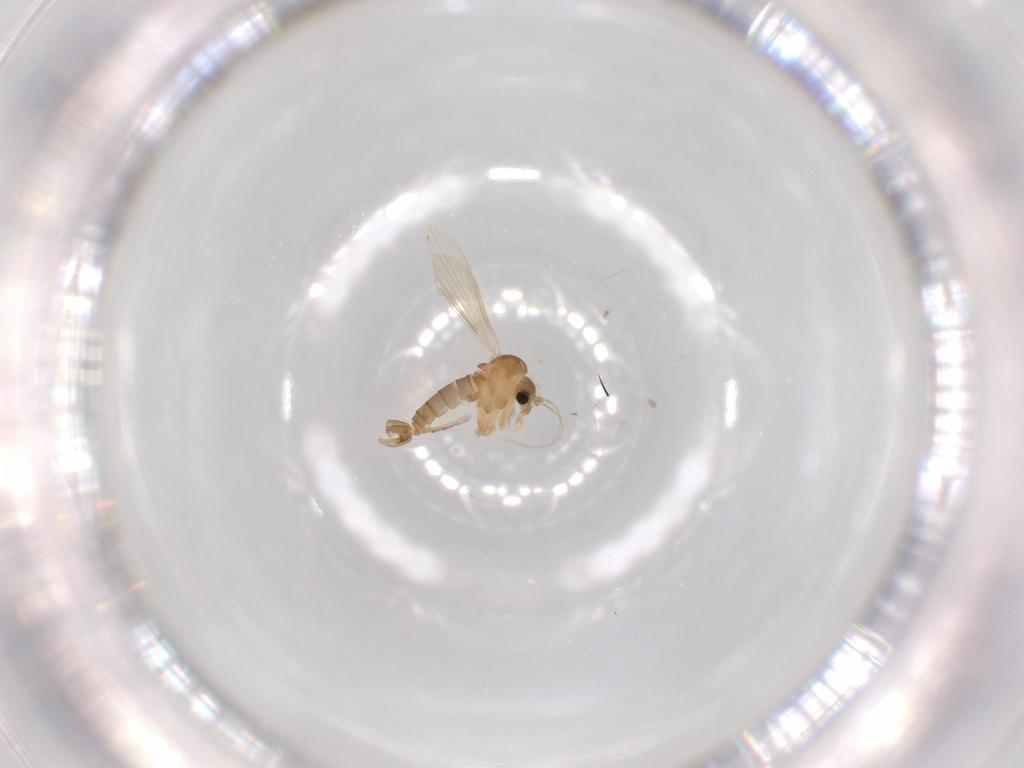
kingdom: Animalia
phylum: Arthropoda
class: Insecta
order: Diptera
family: Psychodidae
